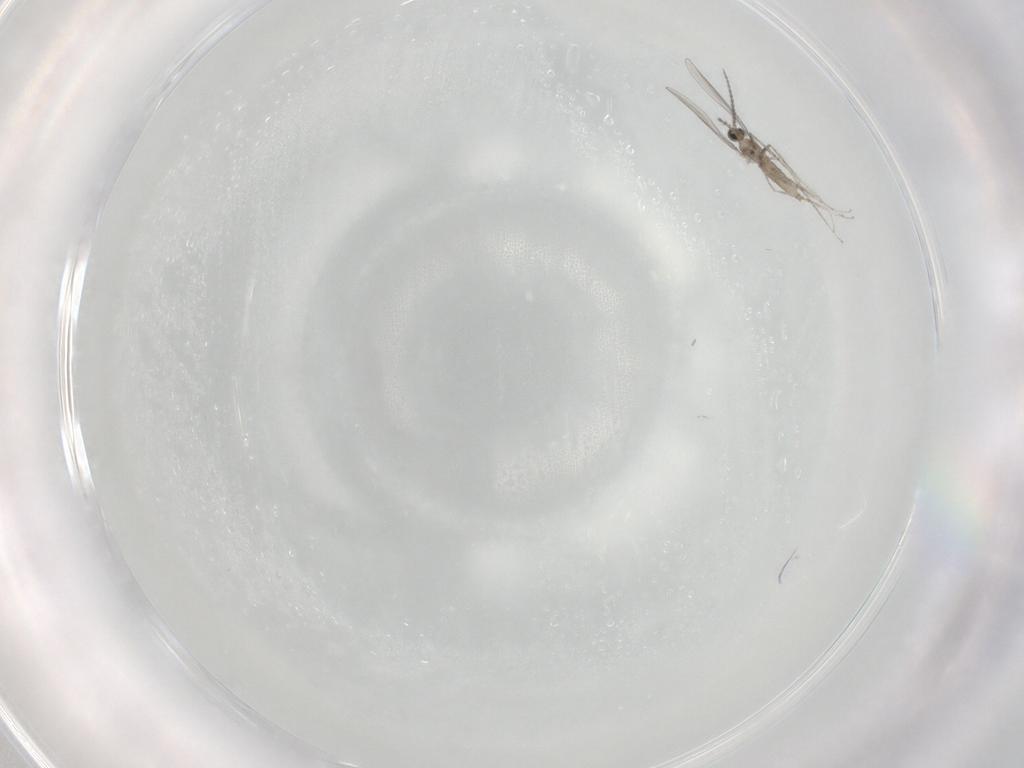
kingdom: Animalia
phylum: Arthropoda
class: Insecta
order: Diptera
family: Cecidomyiidae
